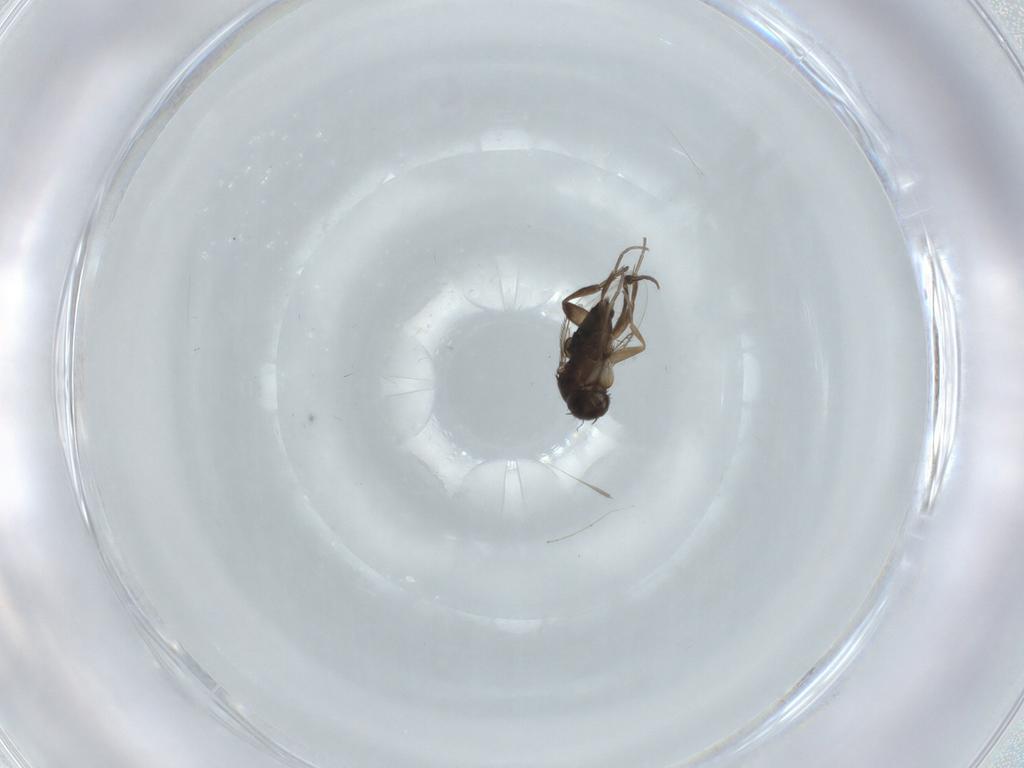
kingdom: Animalia
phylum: Arthropoda
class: Insecta
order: Diptera
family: Phoridae
